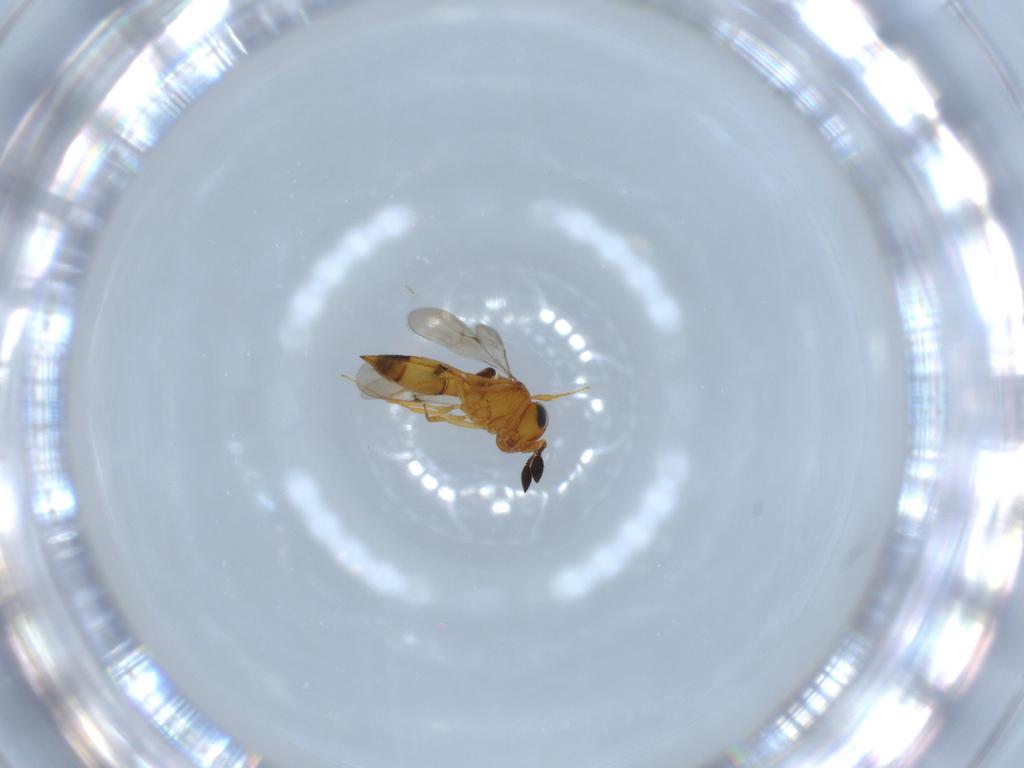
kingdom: Animalia
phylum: Arthropoda
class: Insecta
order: Hymenoptera
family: Scelionidae
